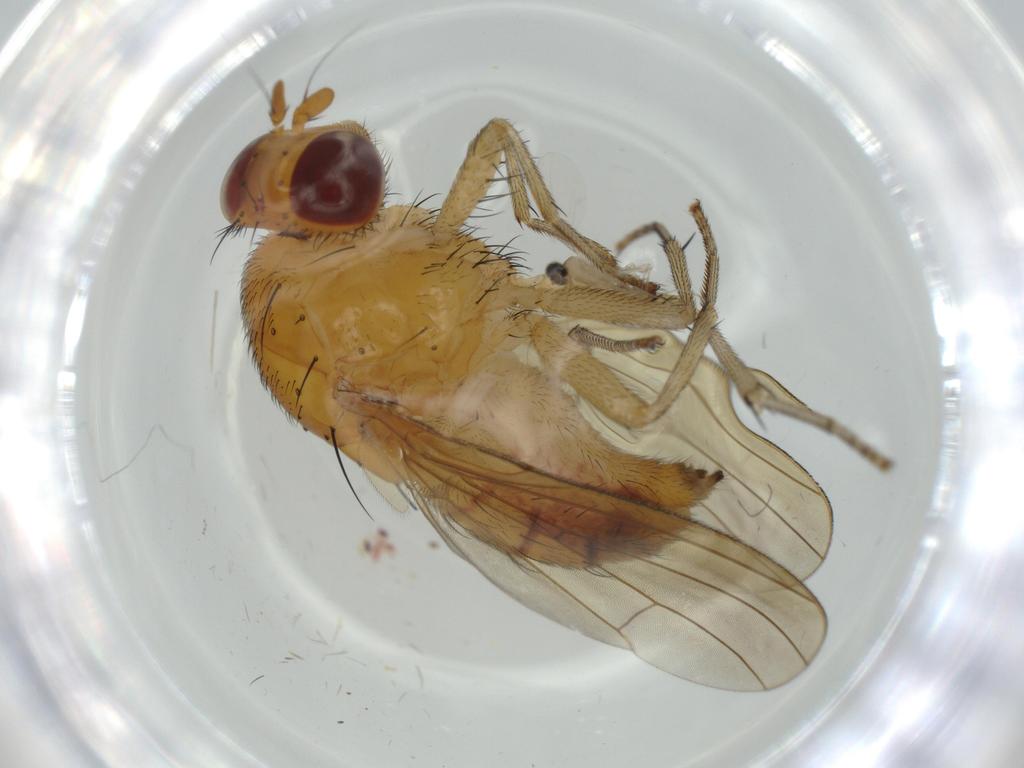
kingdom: Animalia
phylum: Arthropoda
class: Insecta
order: Diptera
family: Cecidomyiidae
